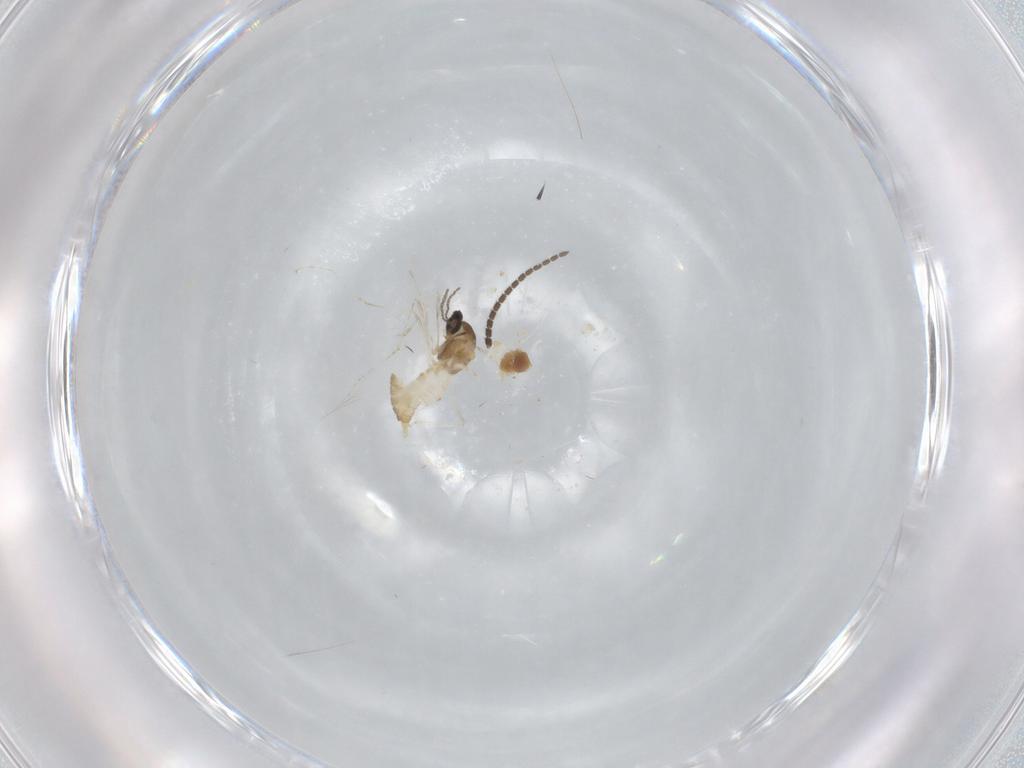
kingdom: Animalia
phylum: Arthropoda
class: Insecta
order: Diptera
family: Cecidomyiidae
